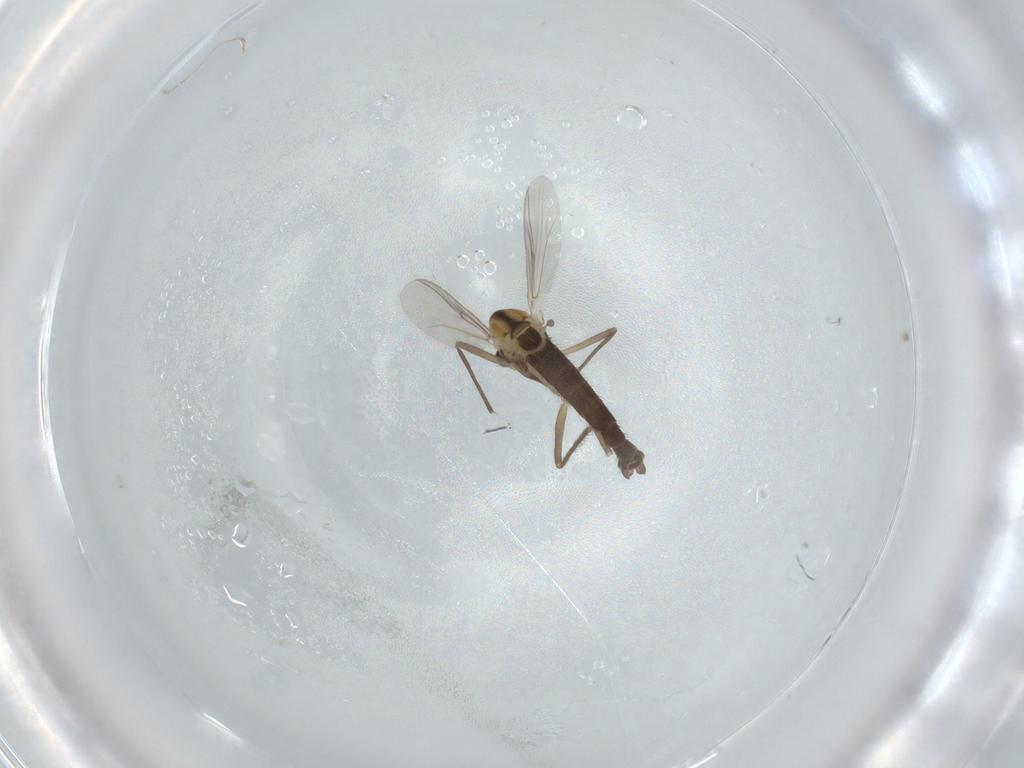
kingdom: Animalia
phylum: Arthropoda
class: Insecta
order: Diptera
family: Chironomidae
